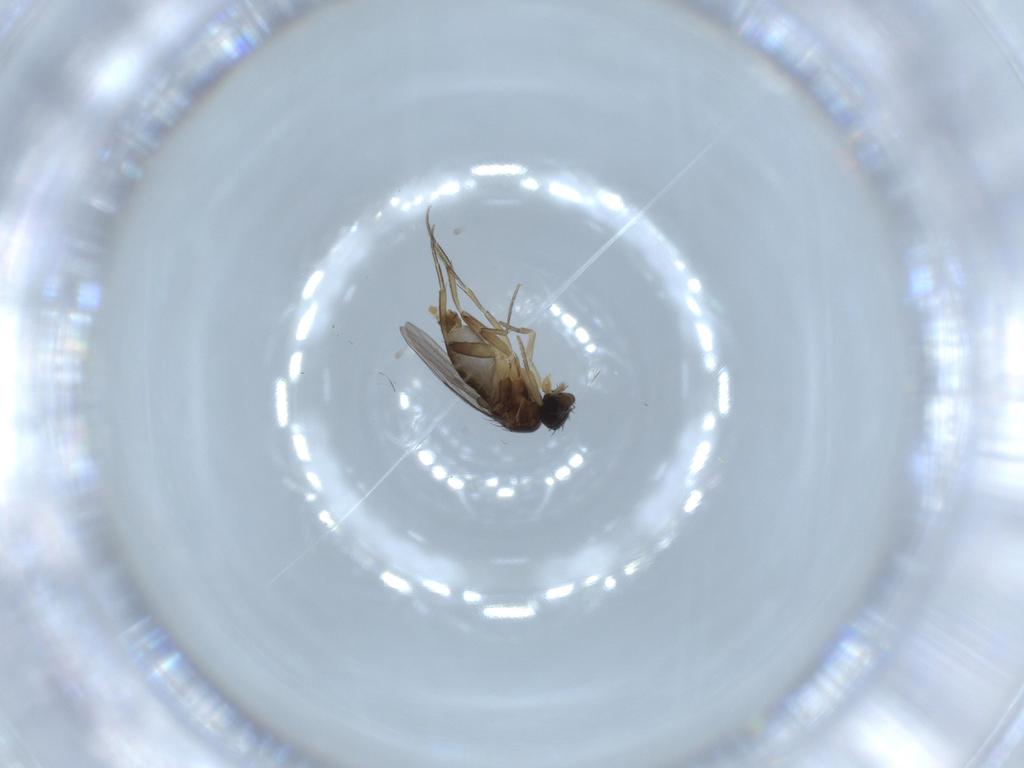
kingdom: Animalia
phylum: Arthropoda
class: Insecta
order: Diptera
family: Phoridae
